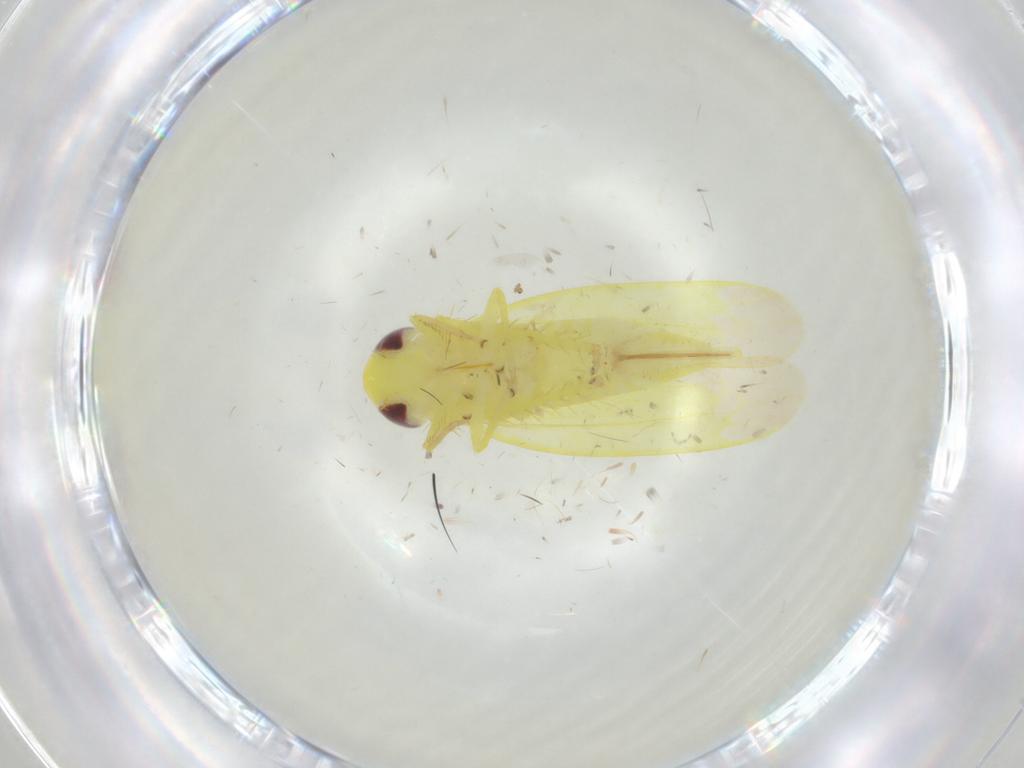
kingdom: Animalia
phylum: Arthropoda
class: Insecta
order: Hemiptera
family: Cicadellidae
